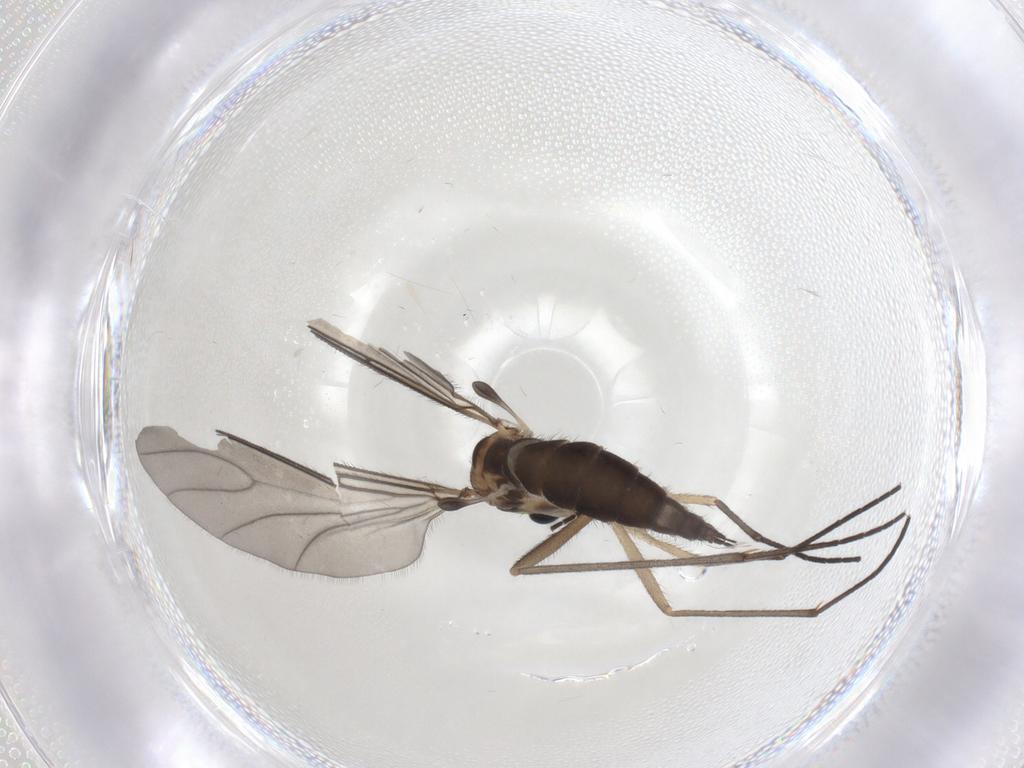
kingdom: Animalia
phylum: Arthropoda
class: Insecta
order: Diptera
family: Sciaridae
